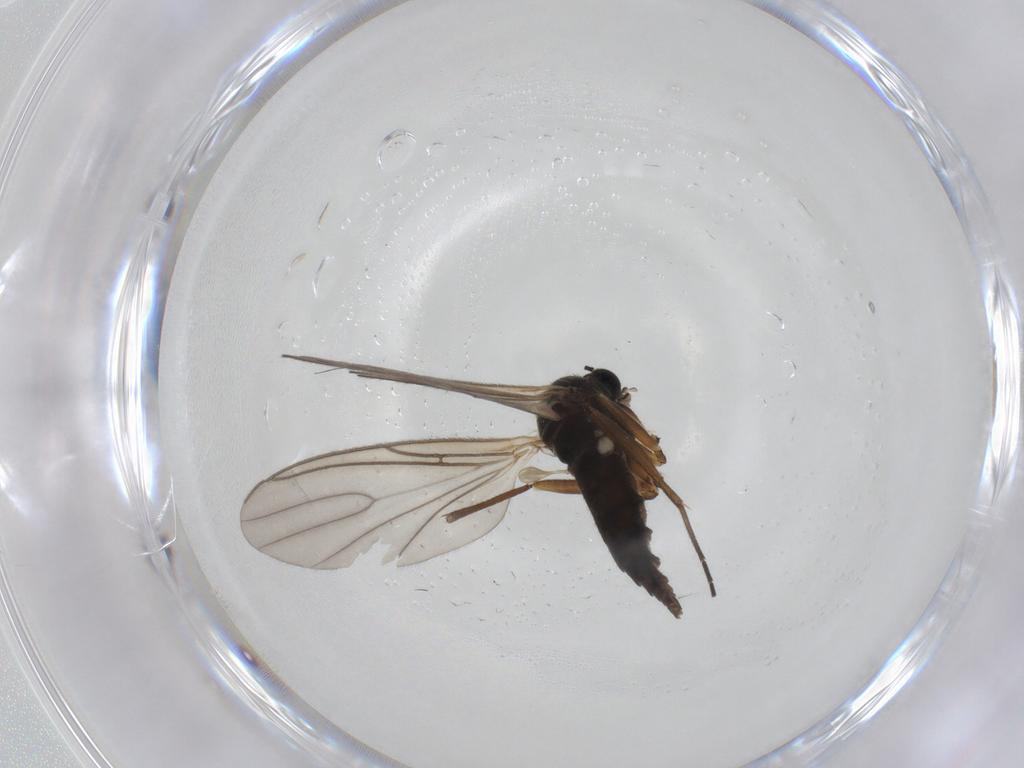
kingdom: Animalia
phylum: Arthropoda
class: Insecta
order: Diptera
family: Sciaridae
